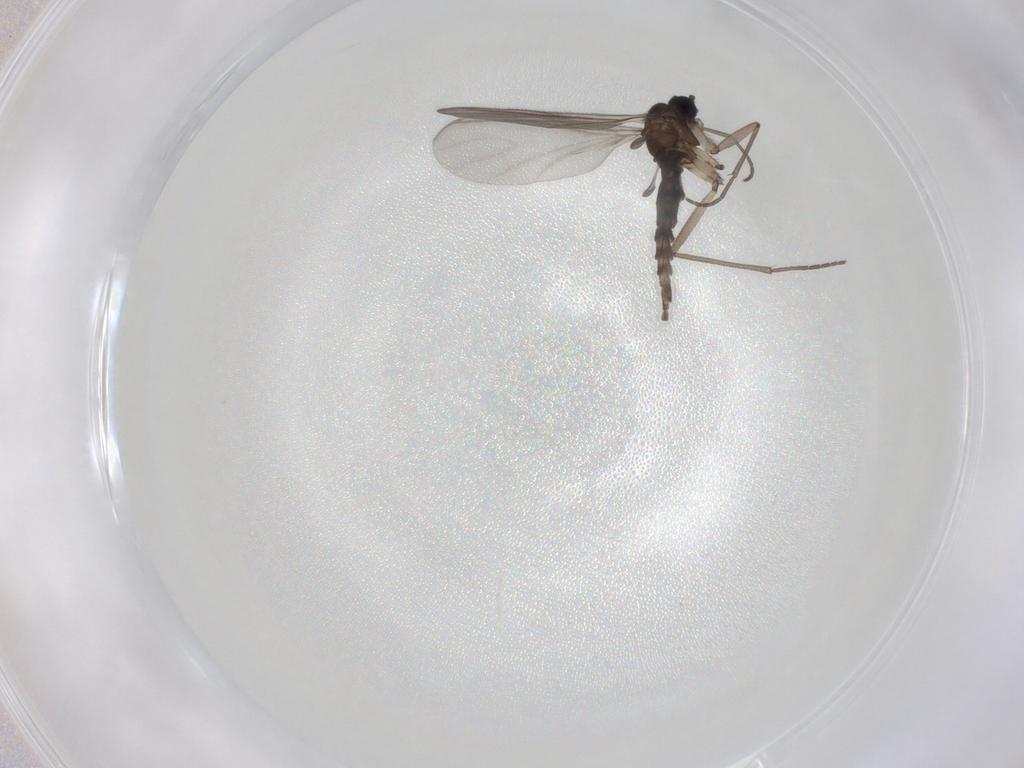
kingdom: Animalia
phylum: Arthropoda
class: Insecta
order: Diptera
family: Sciaridae
